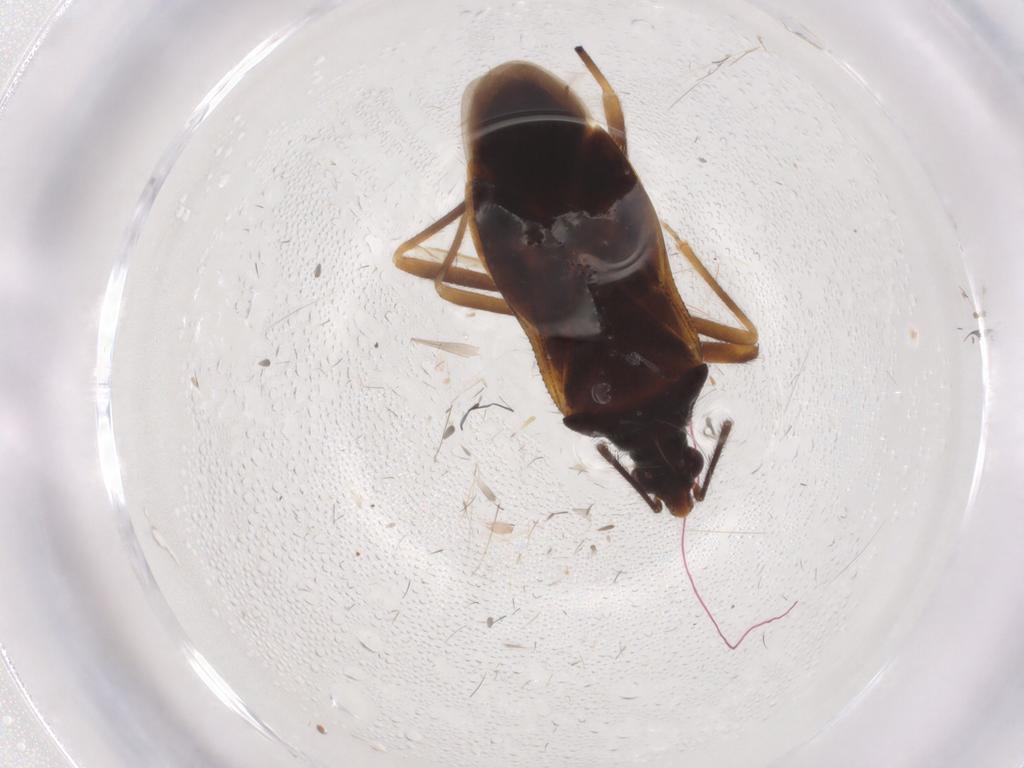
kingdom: Animalia
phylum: Arthropoda
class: Insecta
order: Hemiptera
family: Anthocoridae
